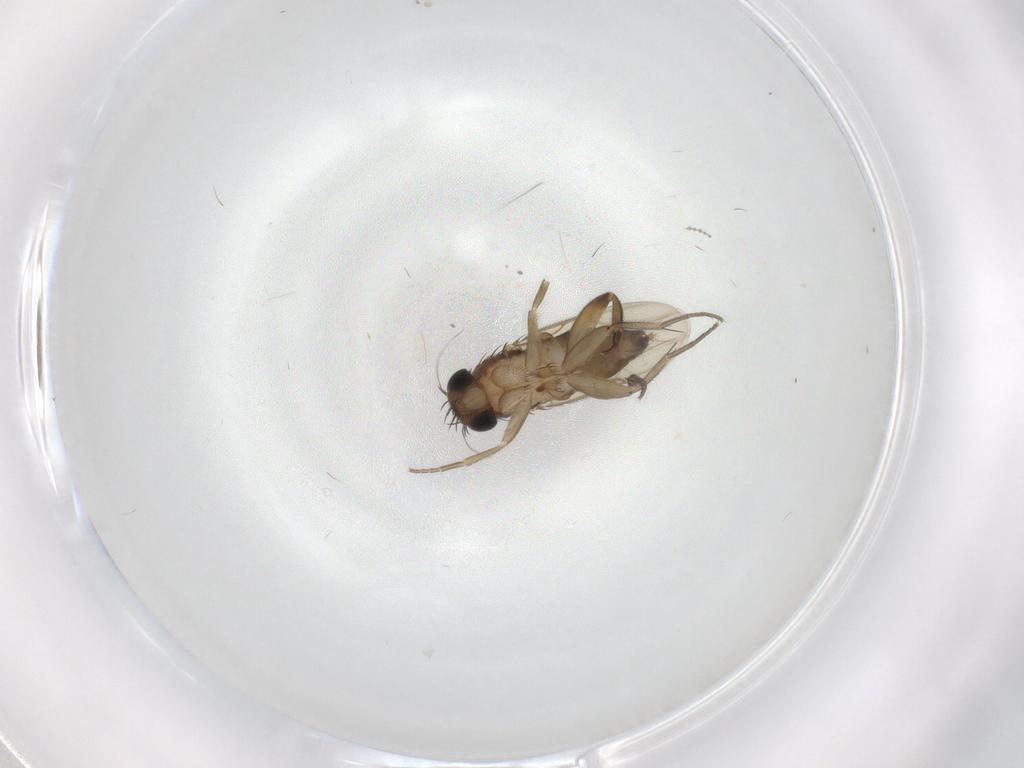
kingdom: Animalia
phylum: Arthropoda
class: Insecta
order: Diptera
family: Phoridae
